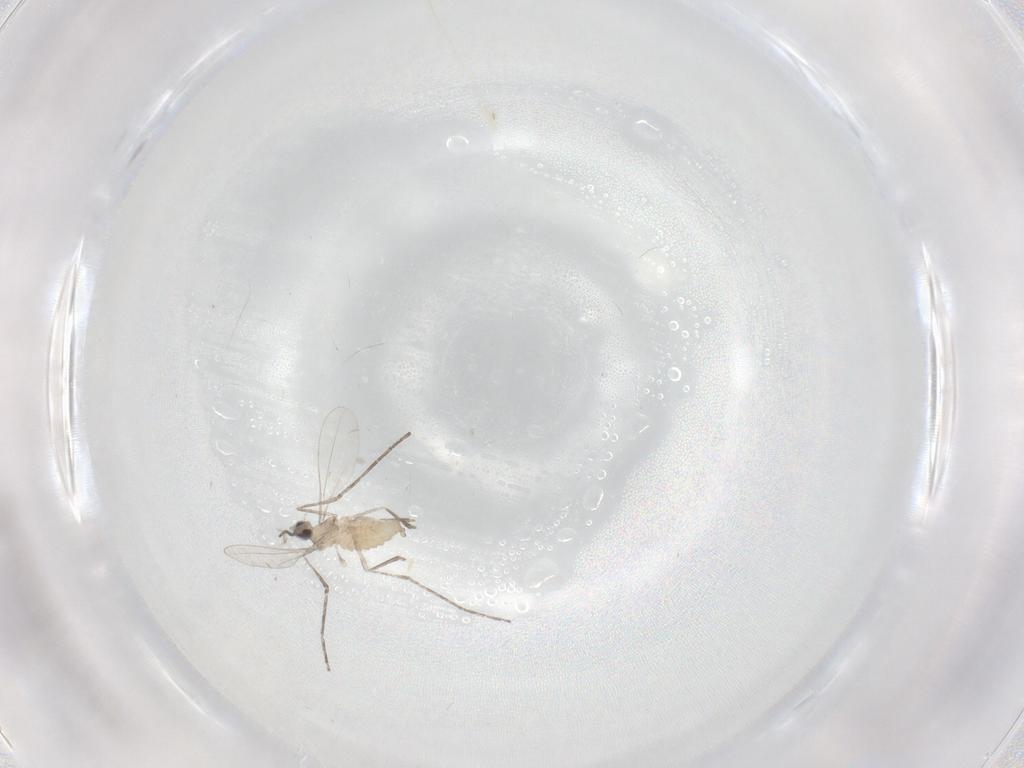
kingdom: Animalia
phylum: Arthropoda
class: Insecta
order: Diptera
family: Cecidomyiidae
